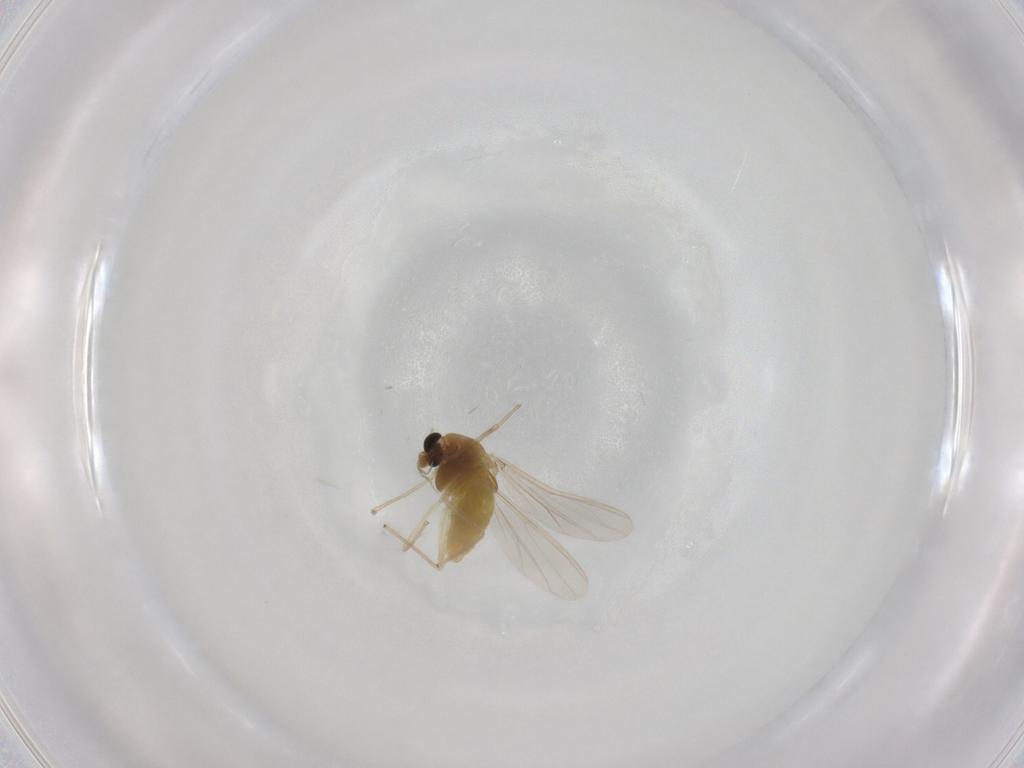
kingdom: Animalia
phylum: Arthropoda
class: Insecta
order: Diptera
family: Chironomidae
